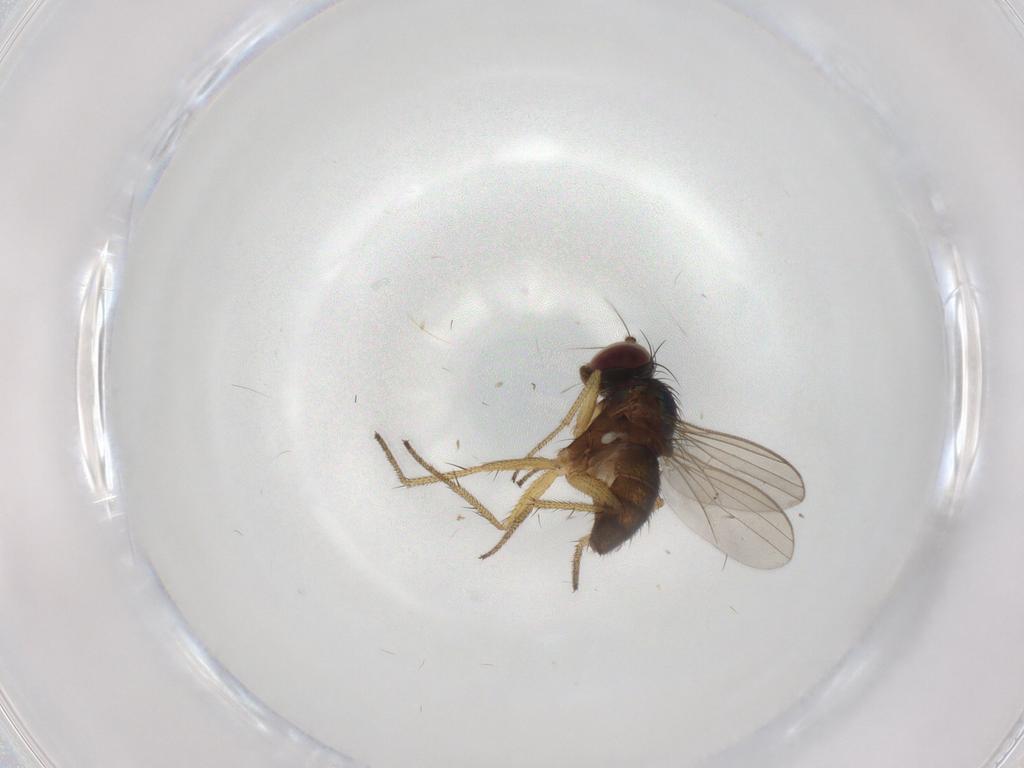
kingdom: Animalia
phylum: Arthropoda
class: Insecta
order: Diptera
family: Dolichopodidae
